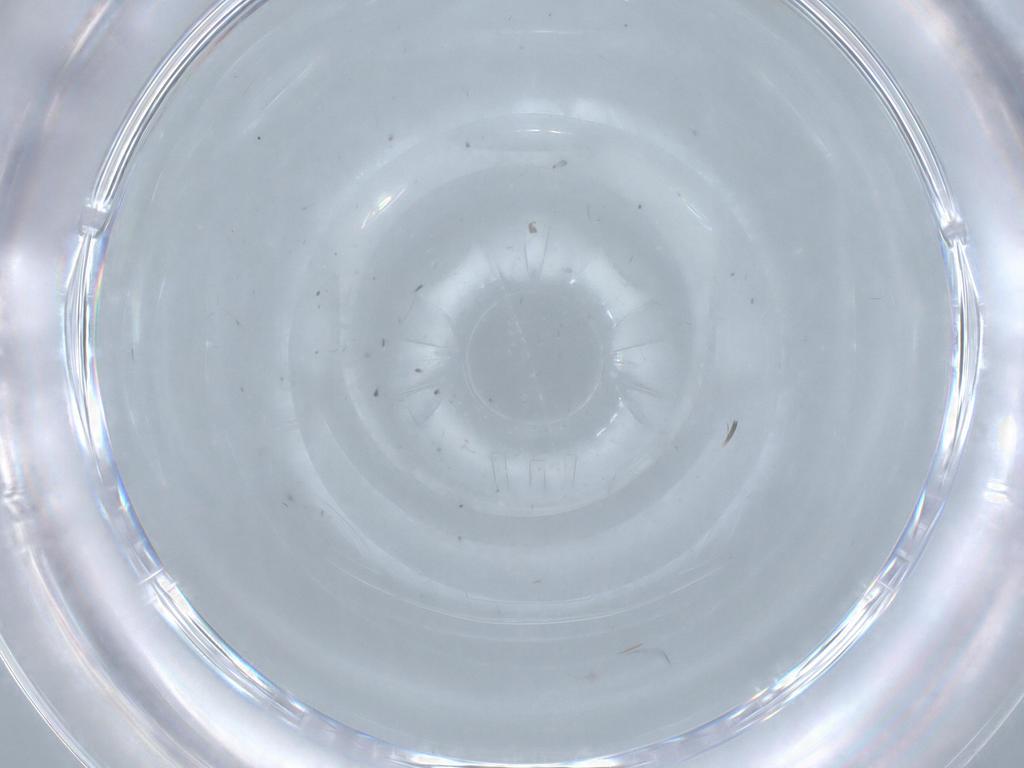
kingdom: Animalia
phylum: Arthropoda
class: Insecta
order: Diptera
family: Chironomidae
